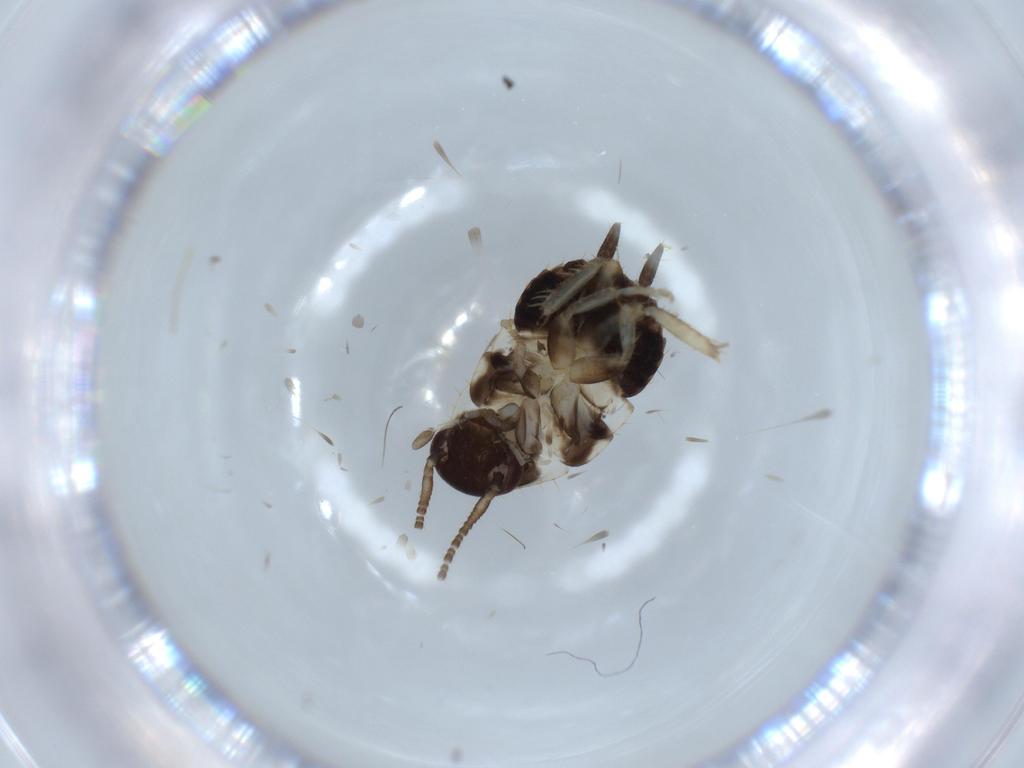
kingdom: Animalia
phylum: Arthropoda
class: Insecta
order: Blattodea
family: Ectobiidae
